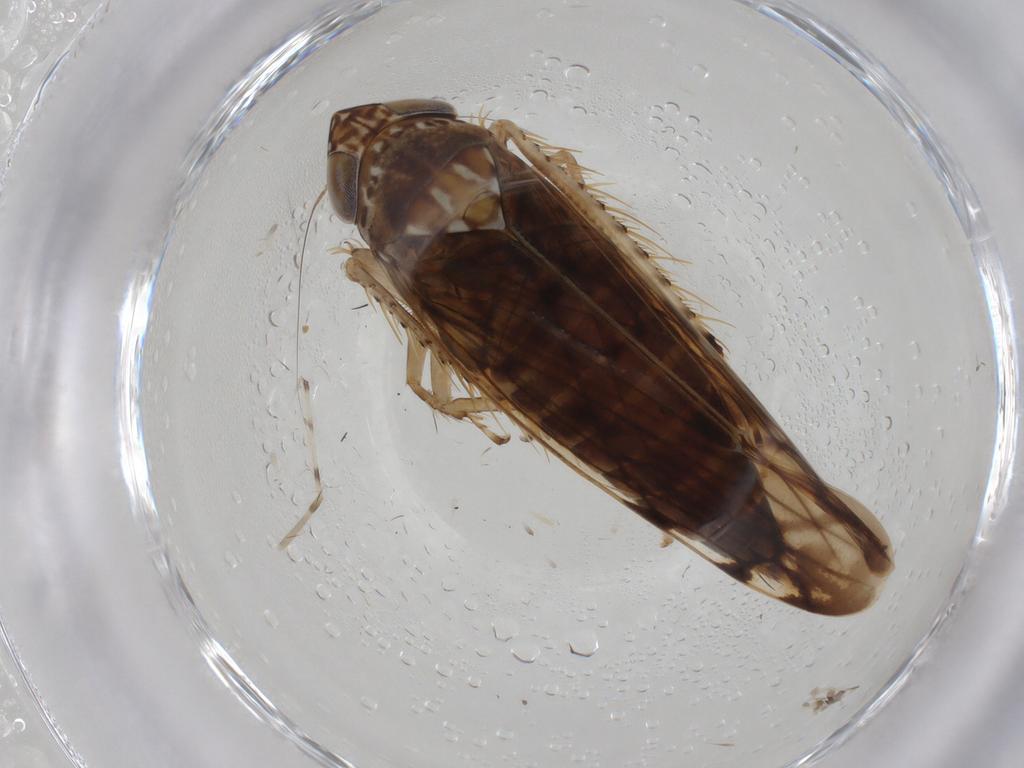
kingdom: Animalia
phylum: Arthropoda
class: Insecta
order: Hemiptera
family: Cicadellidae
